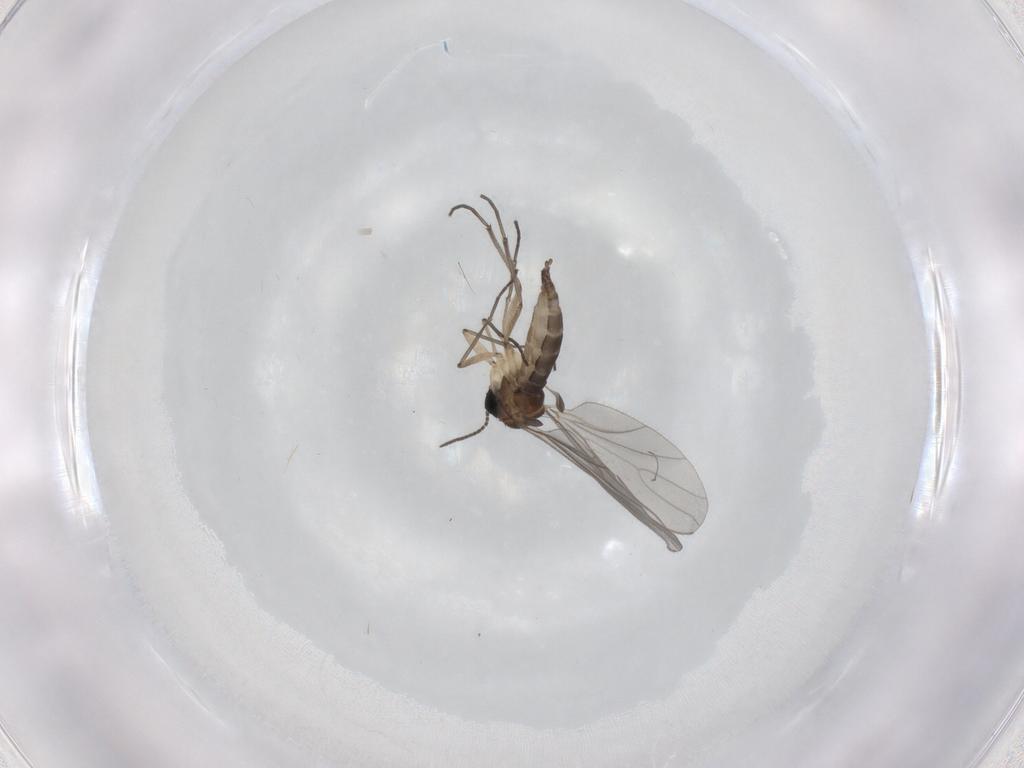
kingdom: Animalia
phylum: Arthropoda
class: Insecta
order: Diptera
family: Sciaridae
